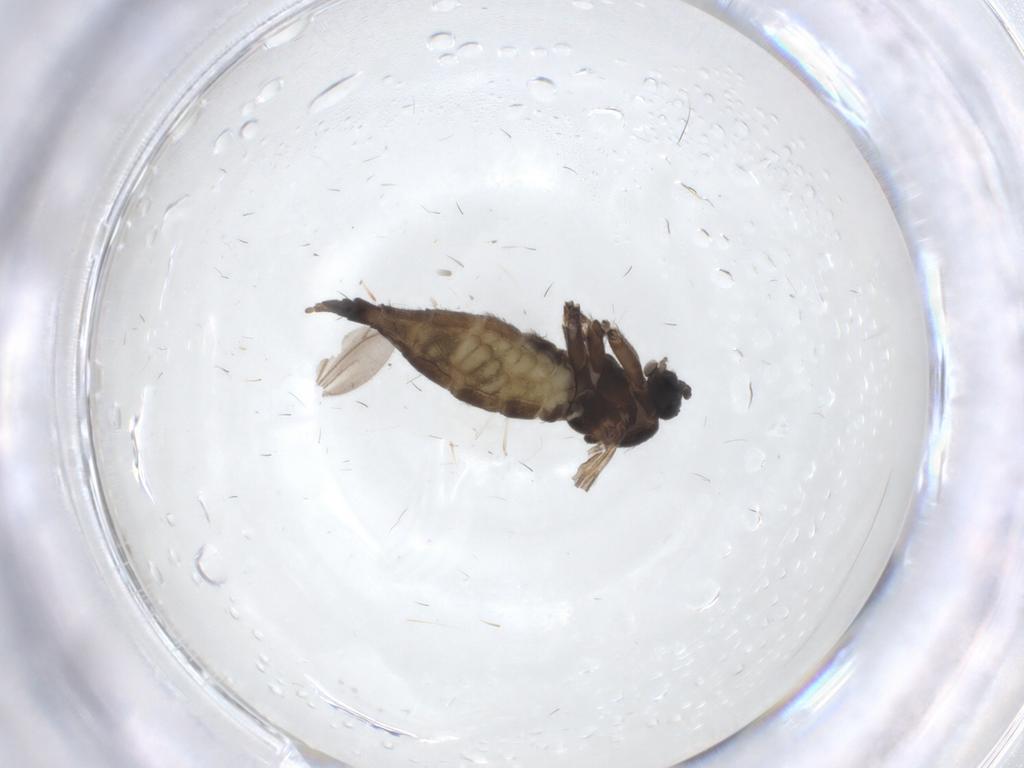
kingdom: Animalia
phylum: Arthropoda
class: Insecta
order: Diptera
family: Sciaridae
